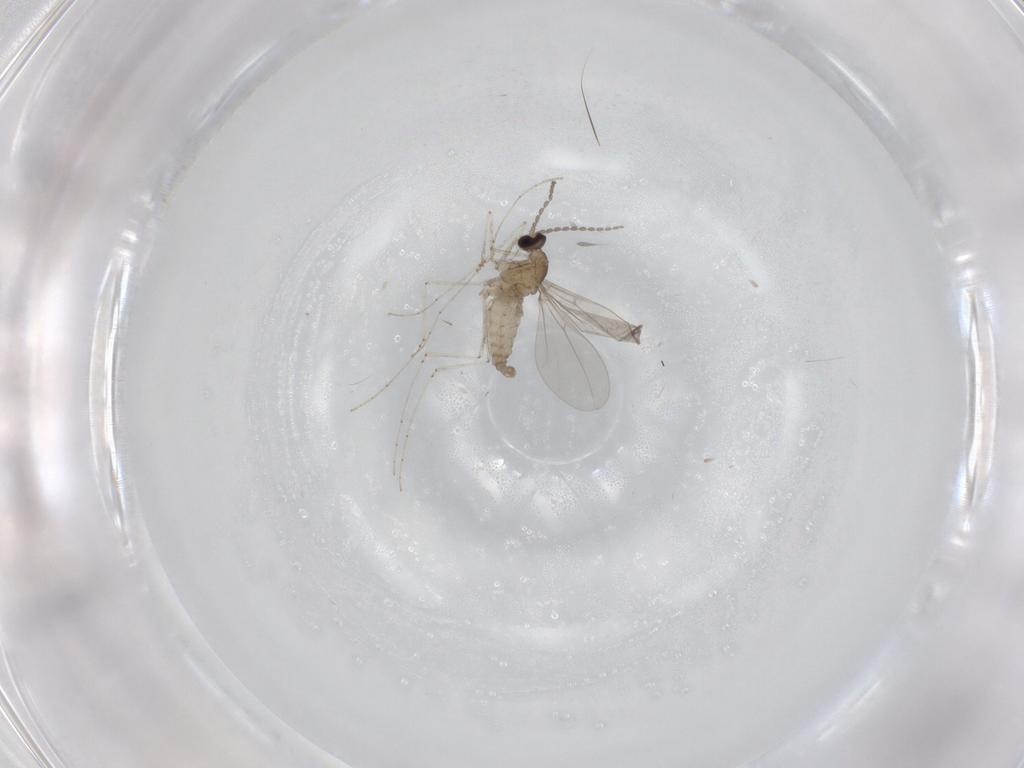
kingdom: Animalia
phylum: Arthropoda
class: Insecta
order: Diptera
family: Cecidomyiidae
